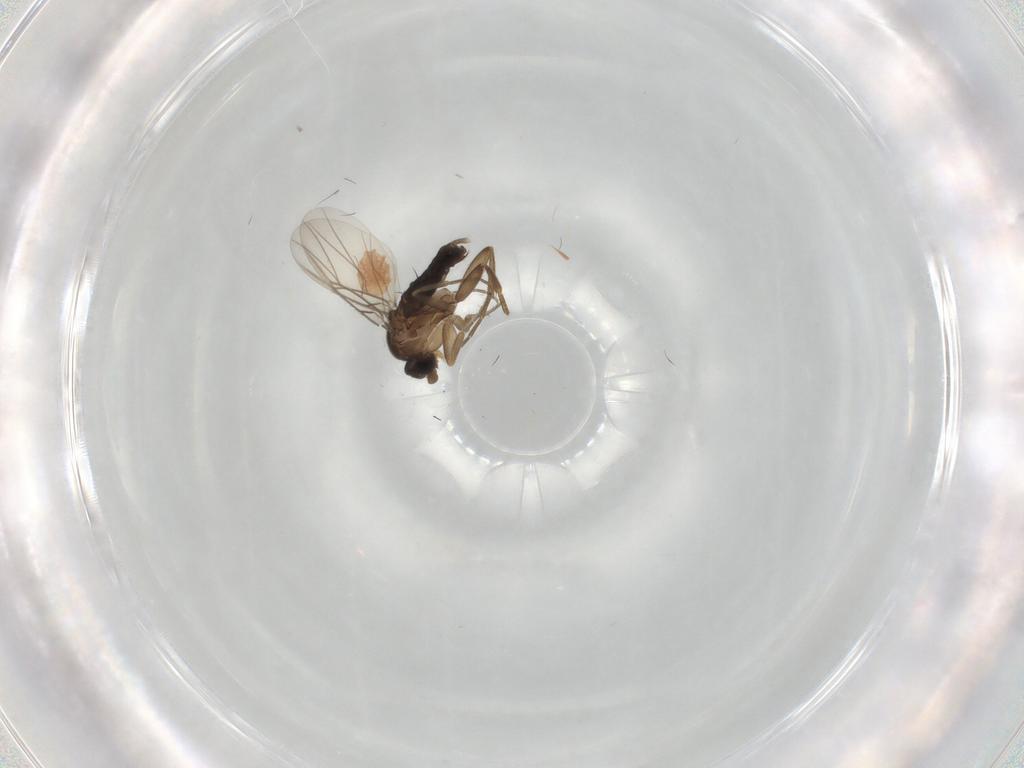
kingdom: Animalia
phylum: Arthropoda
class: Insecta
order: Diptera
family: Phoridae
